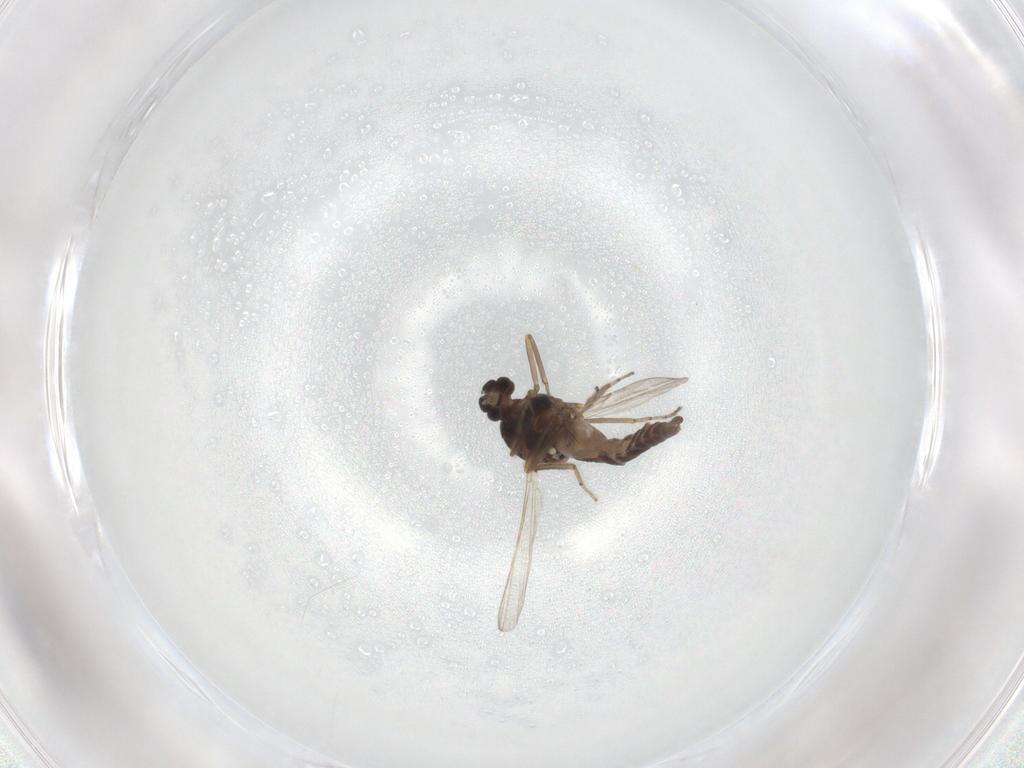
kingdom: Animalia
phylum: Arthropoda
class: Insecta
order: Diptera
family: Ceratopogonidae
